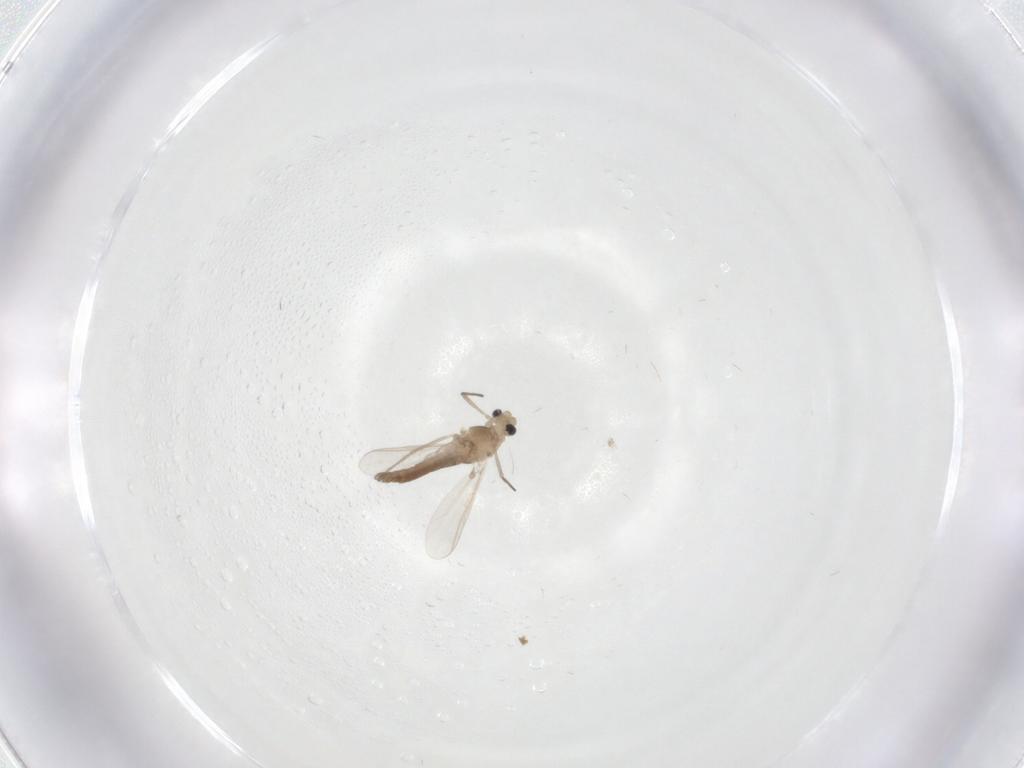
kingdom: Animalia
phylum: Arthropoda
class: Insecta
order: Diptera
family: Chironomidae
